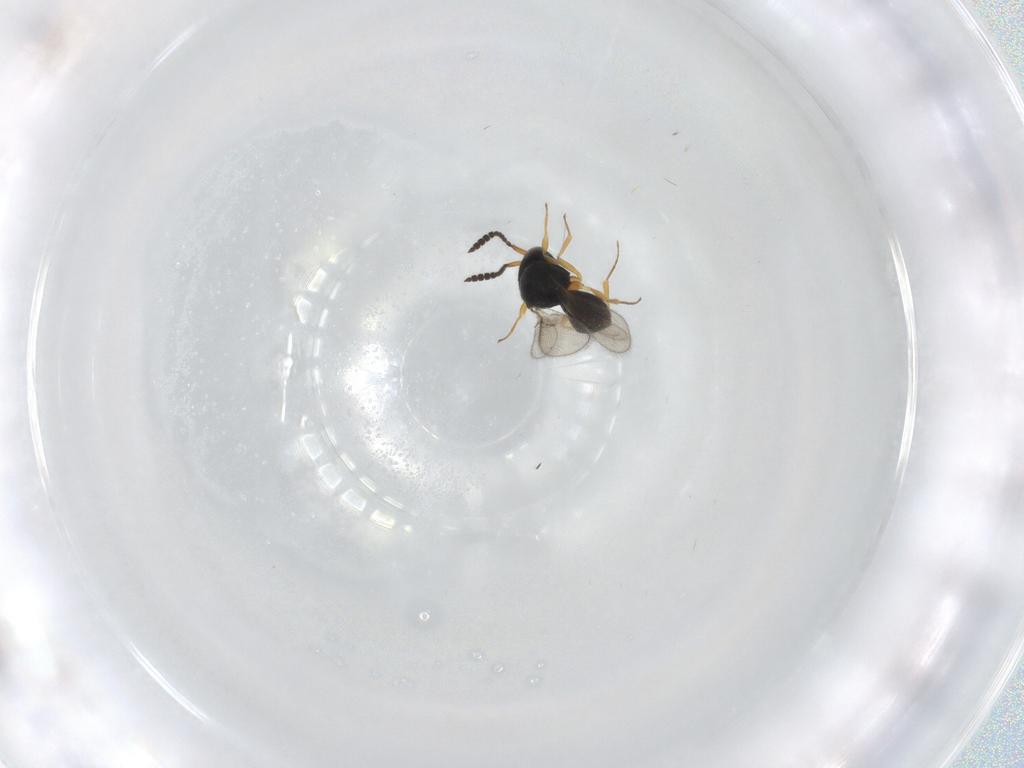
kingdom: Animalia
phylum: Arthropoda
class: Insecta
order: Hymenoptera
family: Scelionidae
